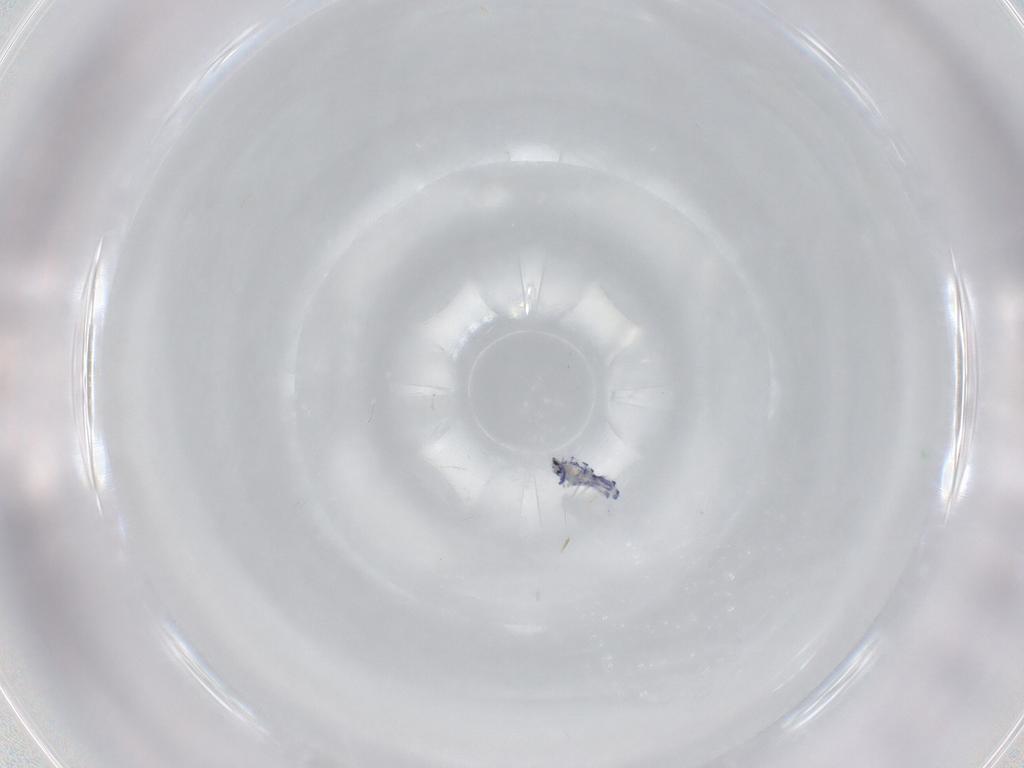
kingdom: Animalia
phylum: Arthropoda
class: Collembola
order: Entomobryomorpha
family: Entomobryidae
